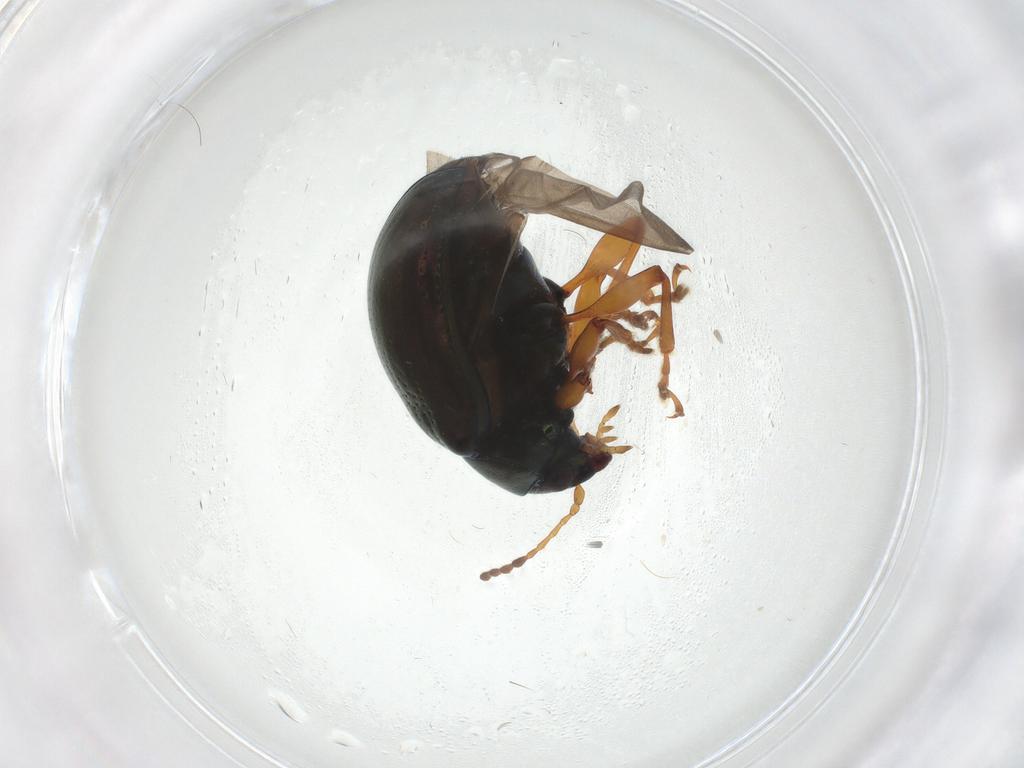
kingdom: Animalia
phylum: Arthropoda
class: Insecta
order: Coleoptera
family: Chrysomelidae
